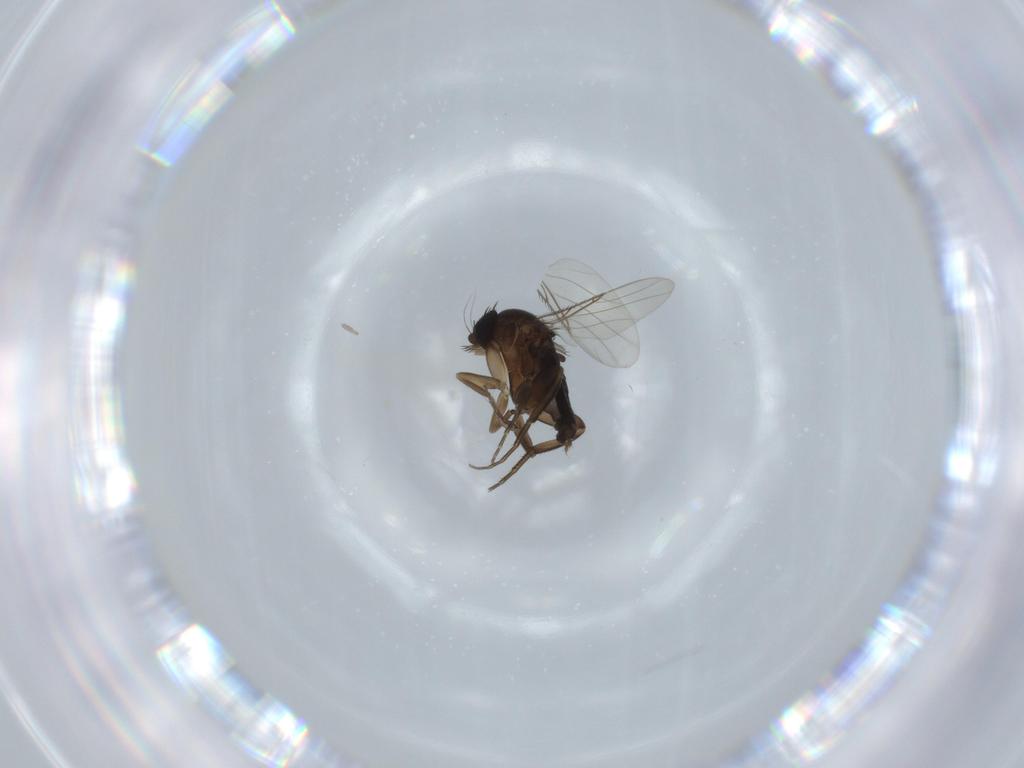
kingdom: Animalia
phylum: Arthropoda
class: Insecta
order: Diptera
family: Phoridae
